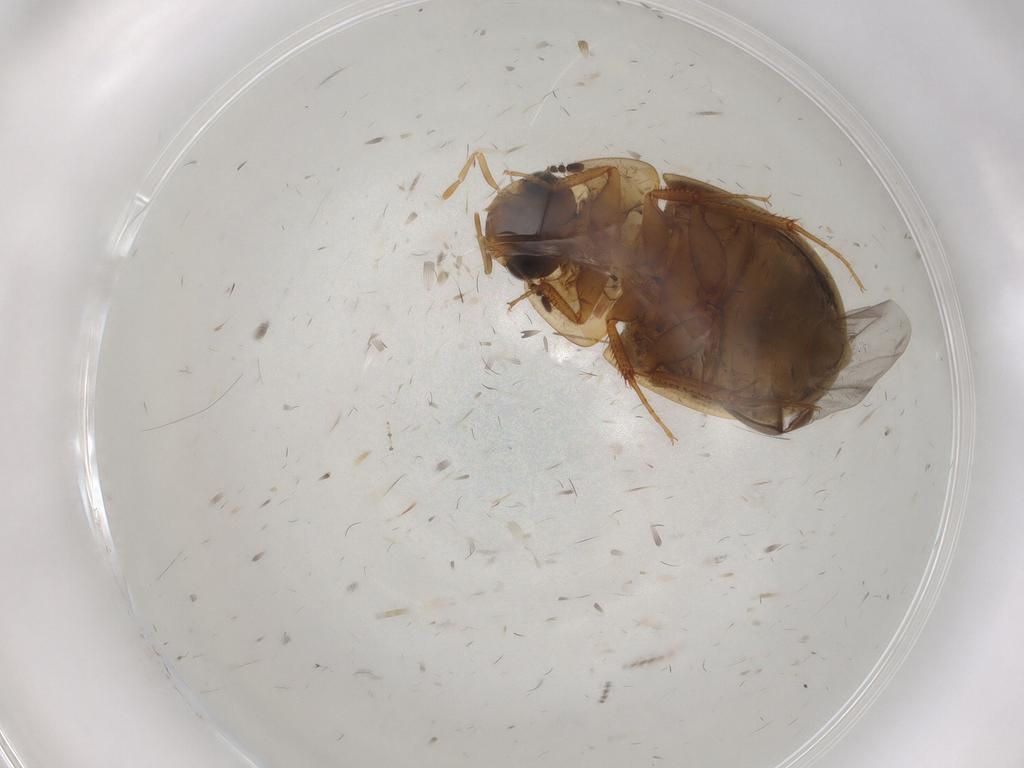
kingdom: Animalia
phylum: Arthropoda
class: Insecta
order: Coleoptera
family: Hydrophilidae
